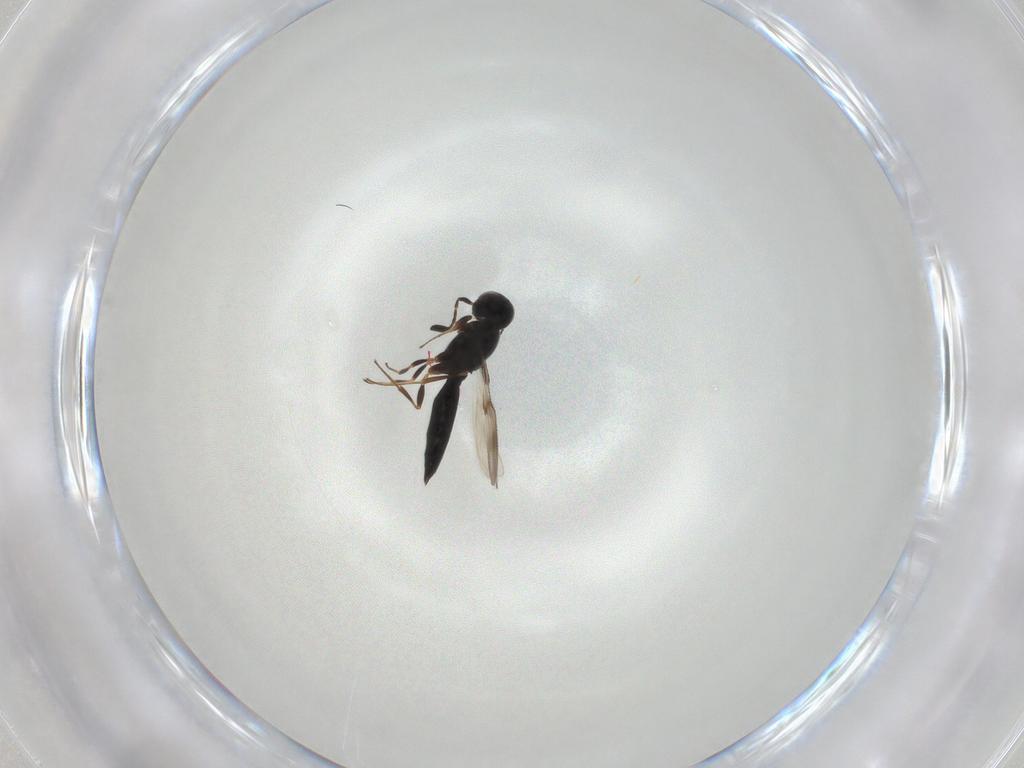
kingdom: Animalia
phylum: Arthropoda
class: Insecta
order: Hymenoptera
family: Scelionidae
